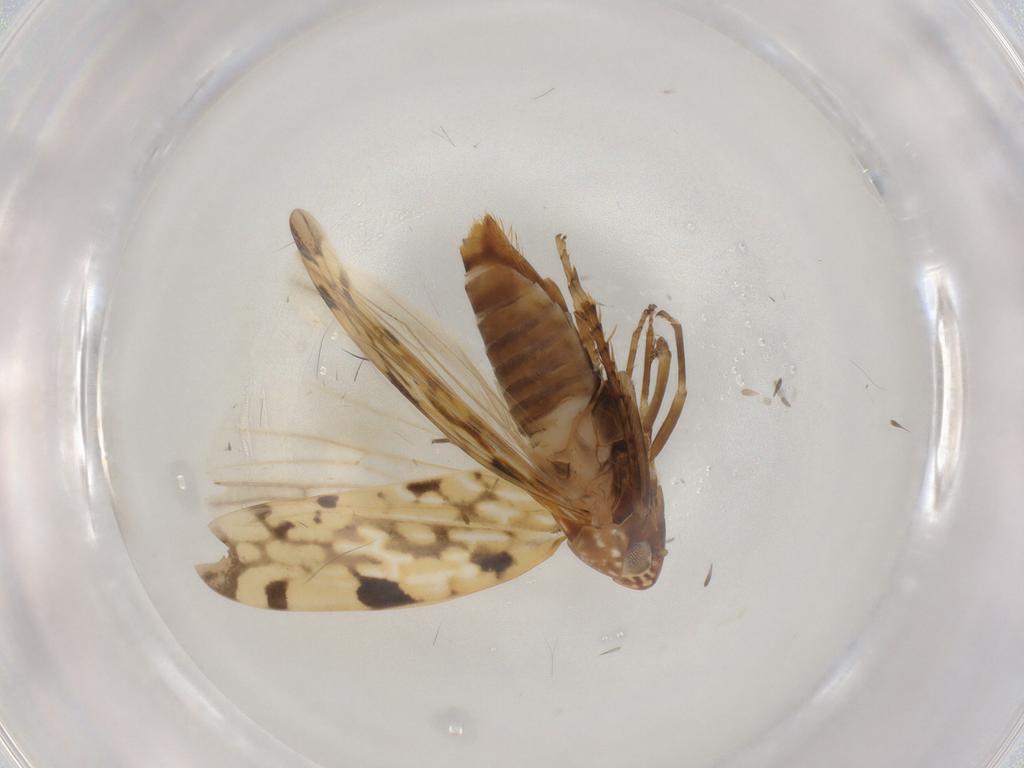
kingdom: Animalia
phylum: Arthropoda
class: Insecta
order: Hemiptera
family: Cicadellidae
